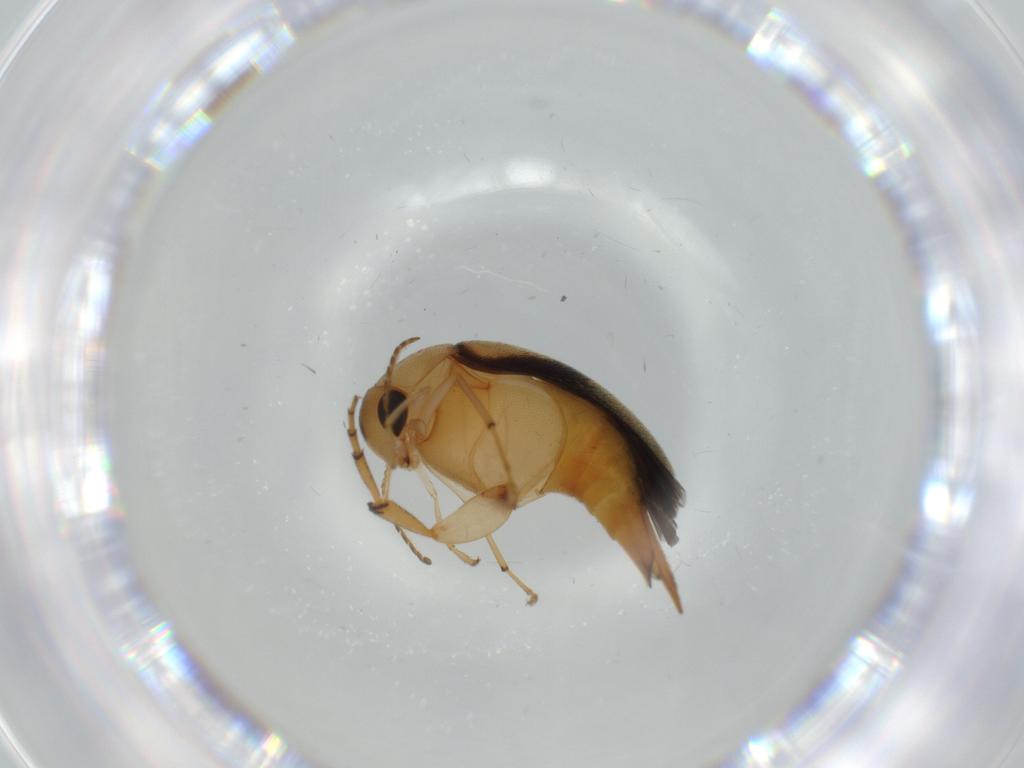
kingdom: Animalia
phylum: Arthropoda
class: Insecta
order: Coleoptera
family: Mordellidae
